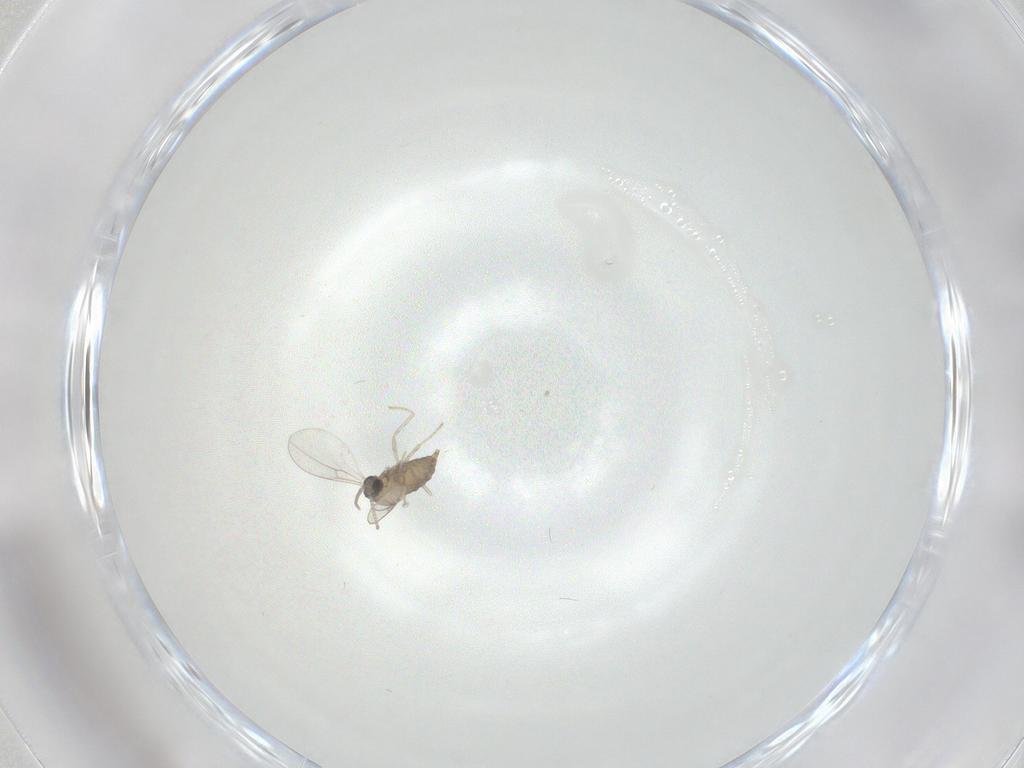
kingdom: Animalia
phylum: Arthropoda
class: Insecta
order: Diptera
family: Cecidomyiidae
